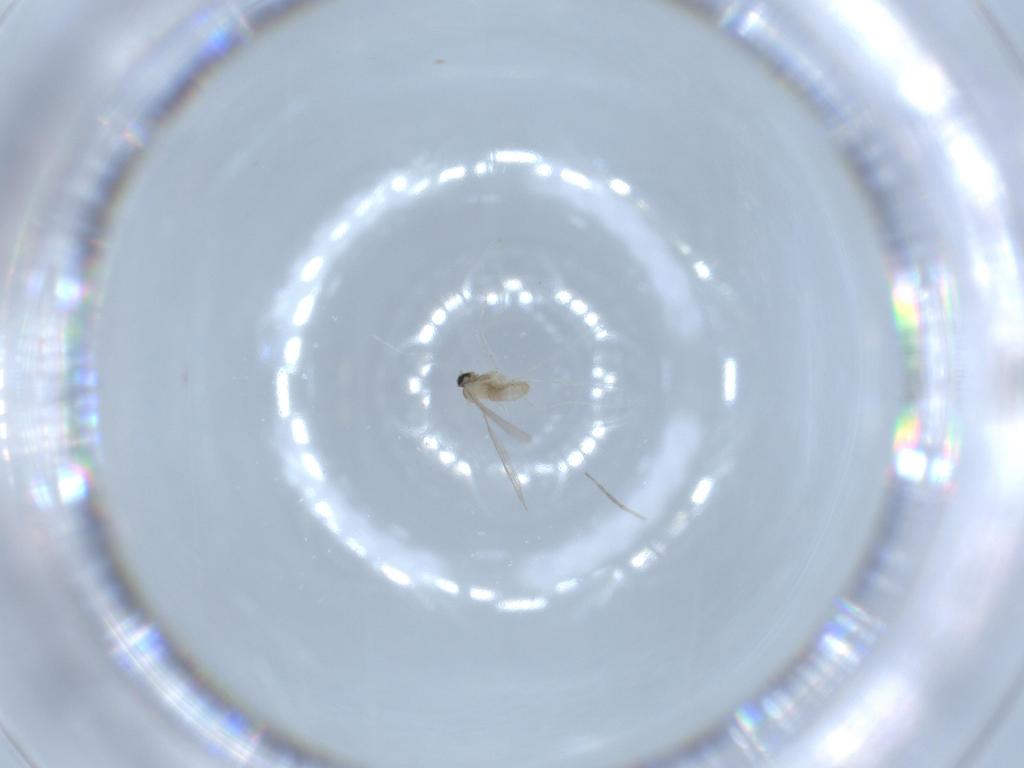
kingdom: Animalia
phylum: Arthropoda
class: Insecta
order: Diptera
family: Cecidomyiidae
